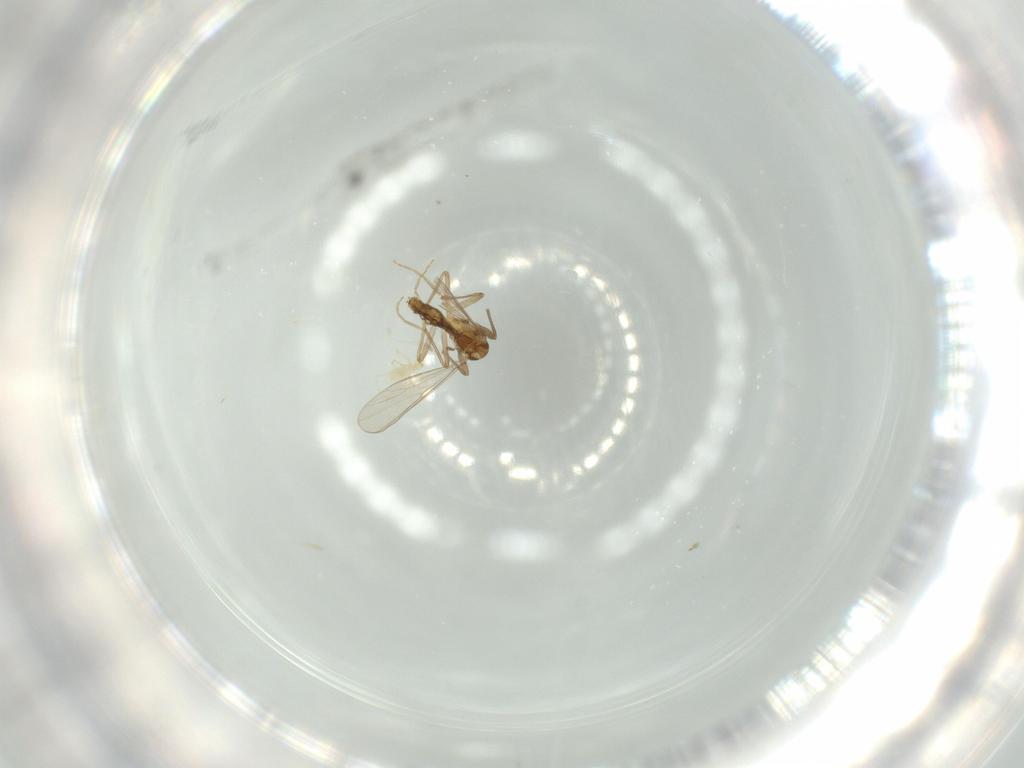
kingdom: Animalia
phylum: Arthropoda
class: Insecta
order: Diptera
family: Chironomidae
